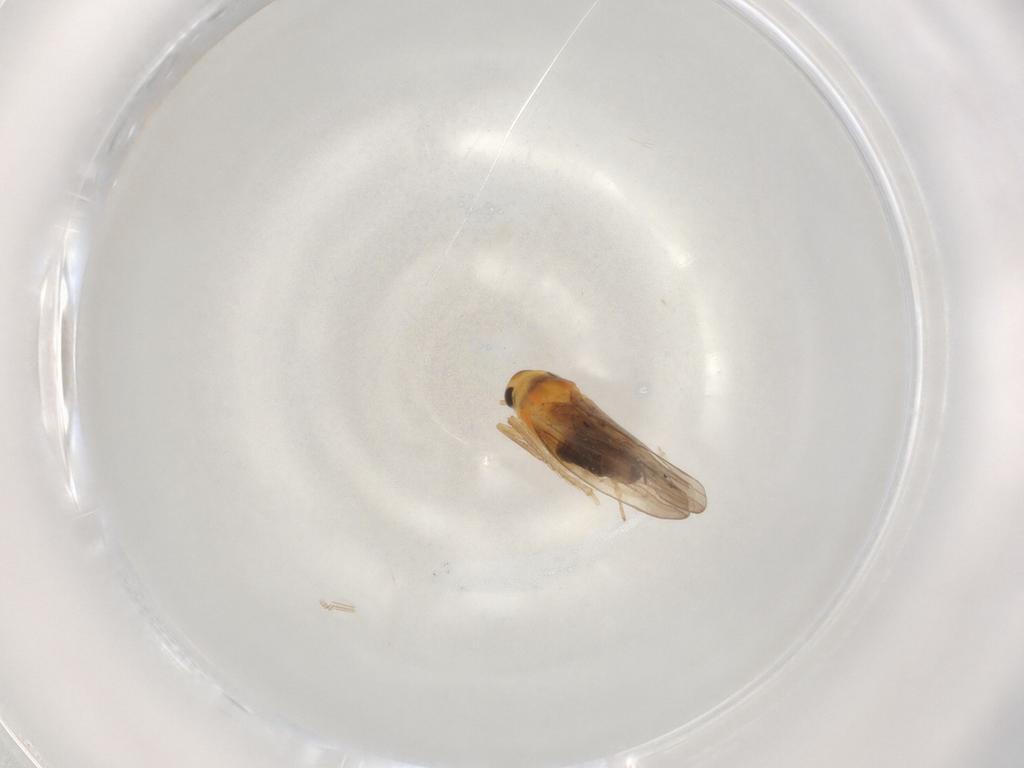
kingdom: Animalia
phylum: Arthropoda
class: Insecta
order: Hemiptera
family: Cicadellidae
